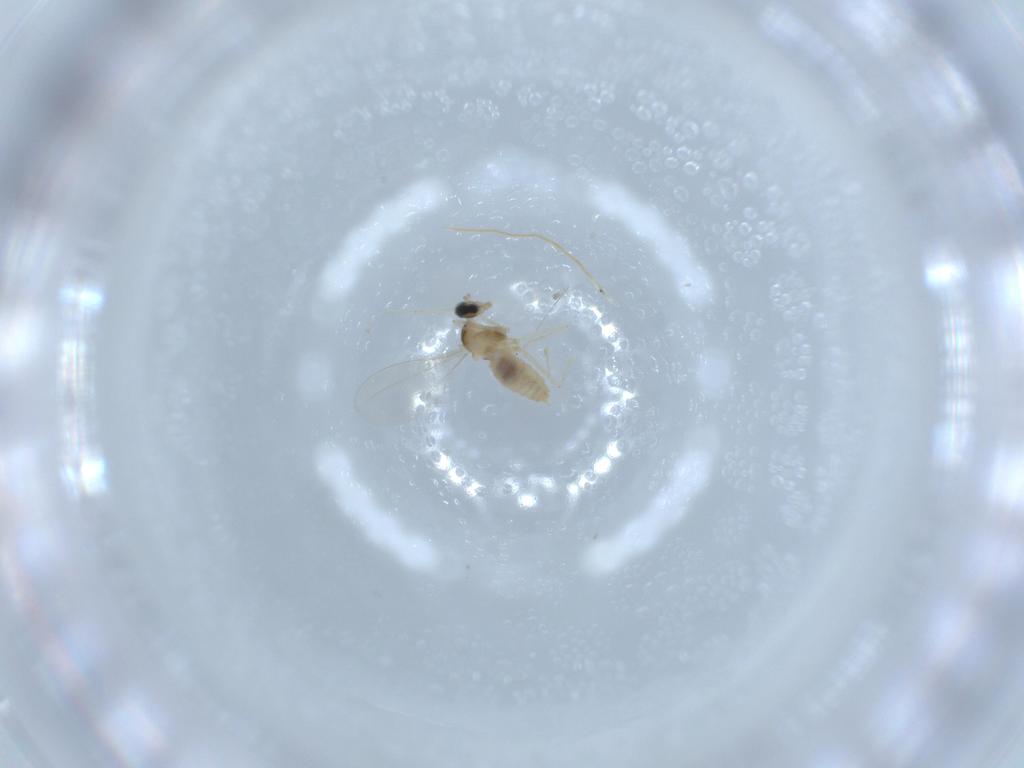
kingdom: Animalia
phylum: Arthropoda
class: Insecta
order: Diptera
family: Cecidomyiidae
